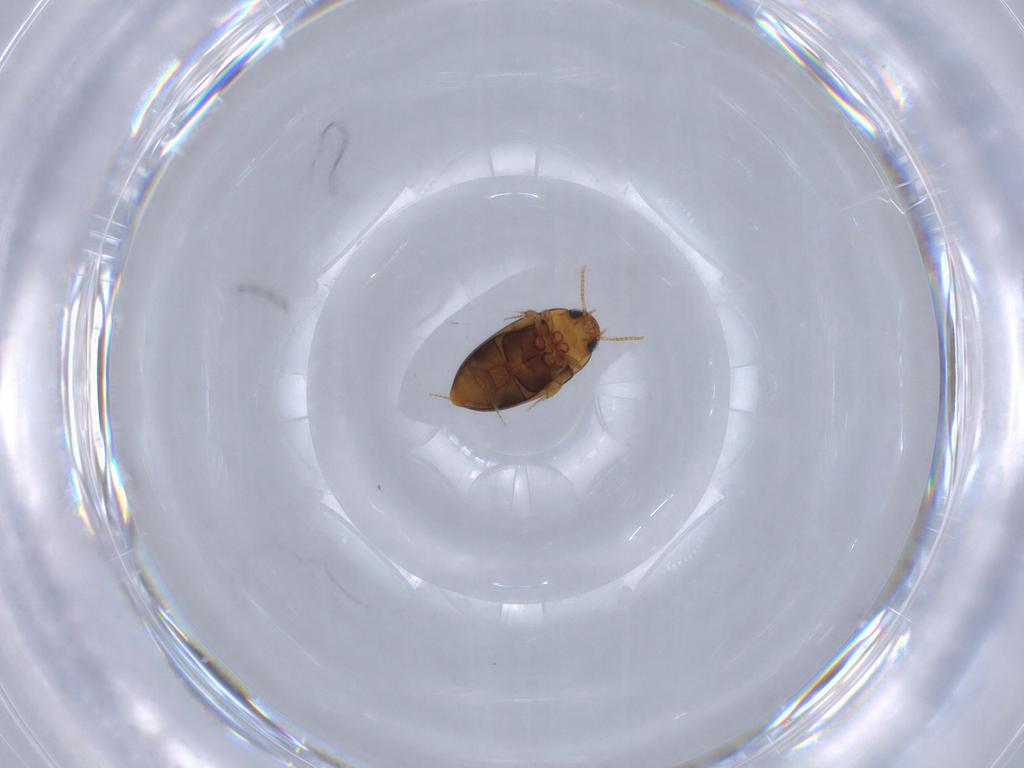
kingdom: Animalia
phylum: Arthropoda
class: Insecta
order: Coleoptera
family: Noteridae
